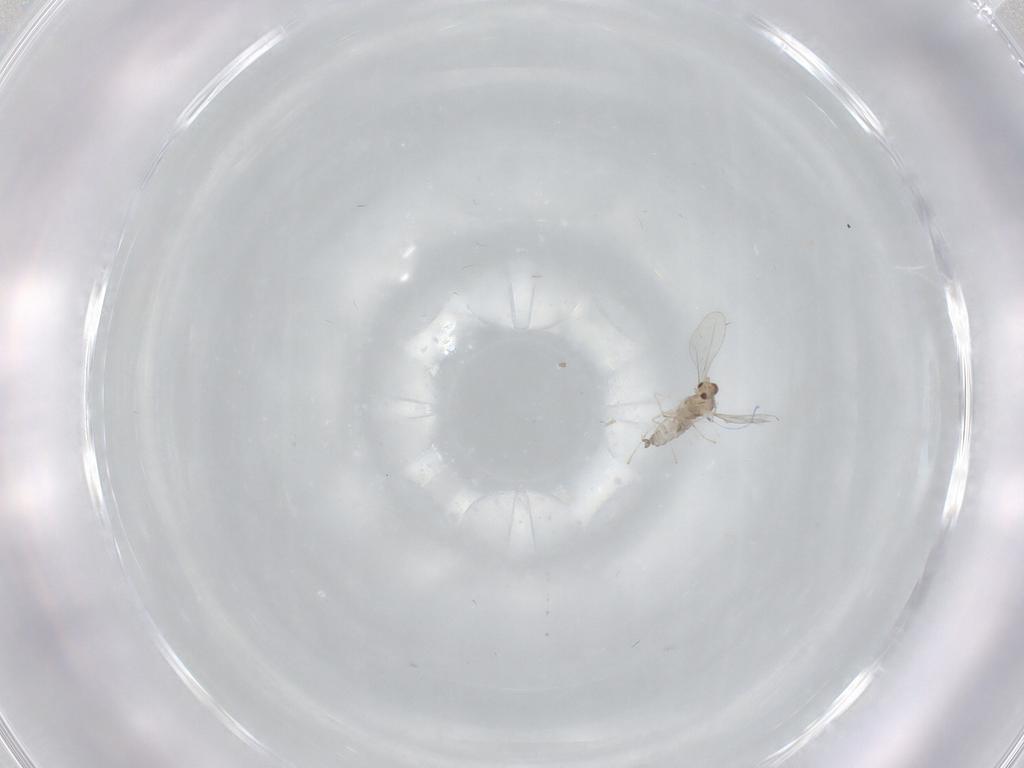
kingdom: Animalia
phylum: Arthropoda
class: Insecta
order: Diptera
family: Cecidomyiidae
